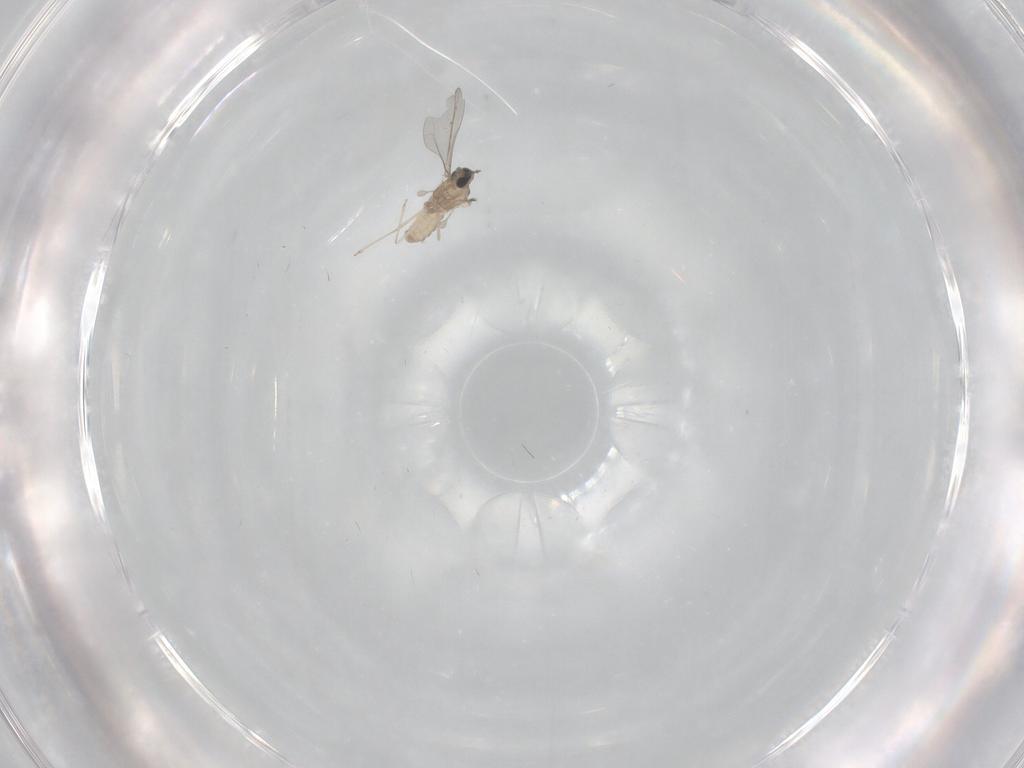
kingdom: Animalia
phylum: Arthropoda
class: Insecta
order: Diptera
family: Cecidomyiidae
